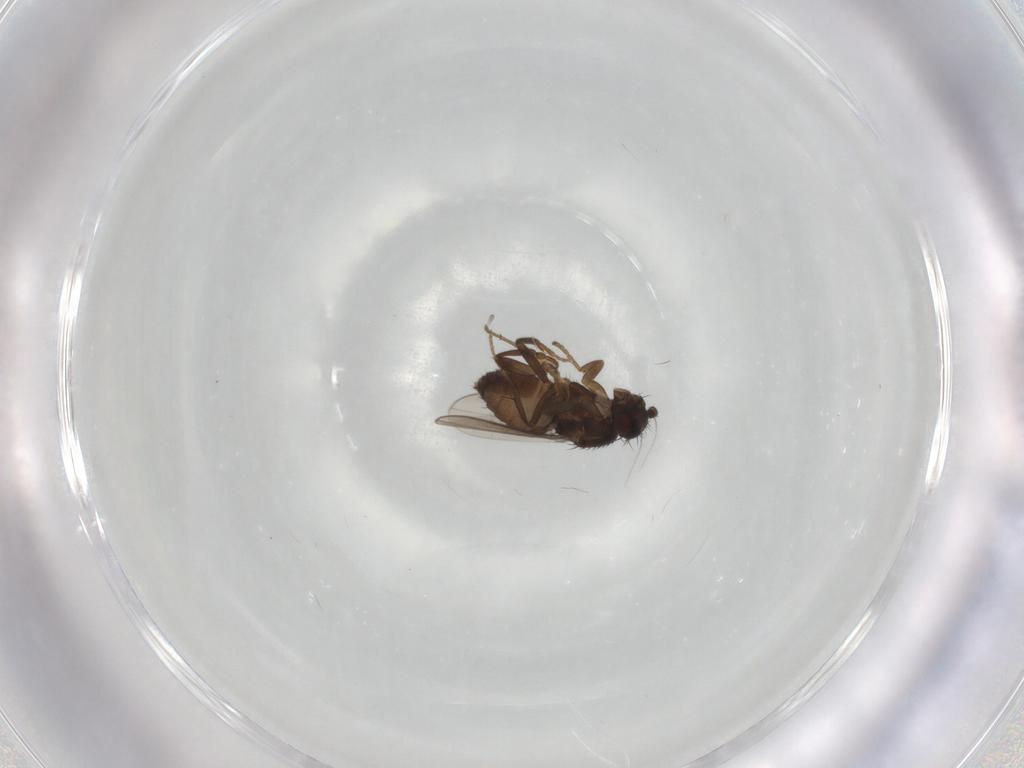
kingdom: Animalia
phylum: Arthropoda
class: Insecta
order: Diptera
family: Sphaeroceridae
